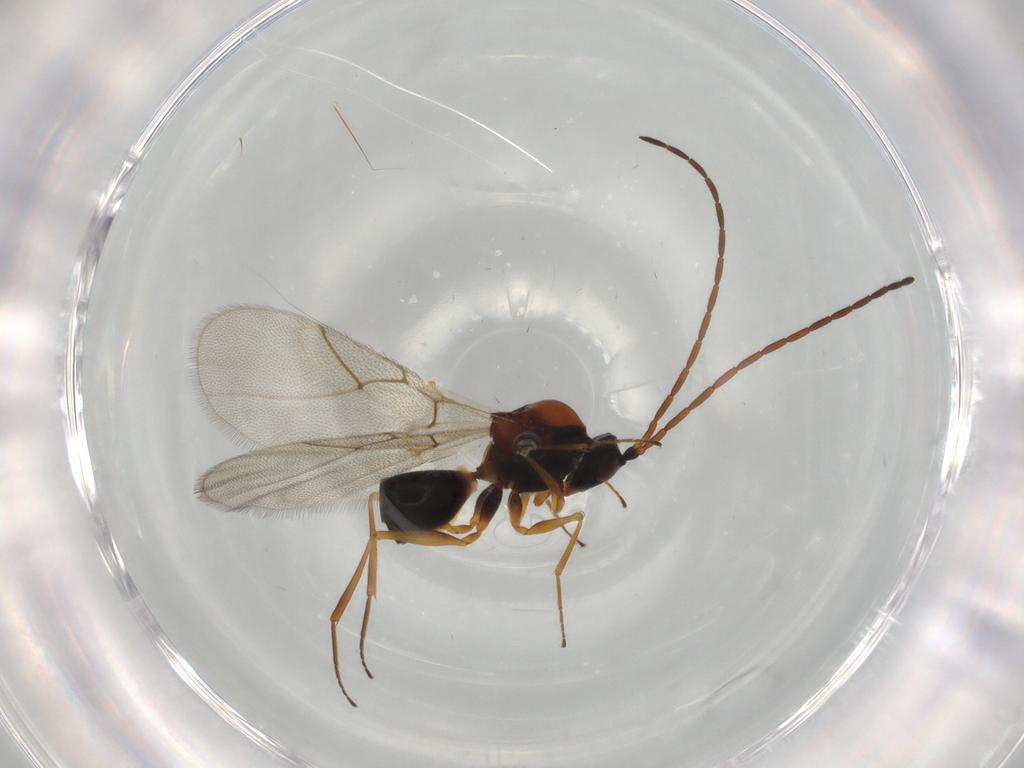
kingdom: Animalia
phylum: Arthropoda
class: Insecta
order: Hymenoptera
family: Figitidae
